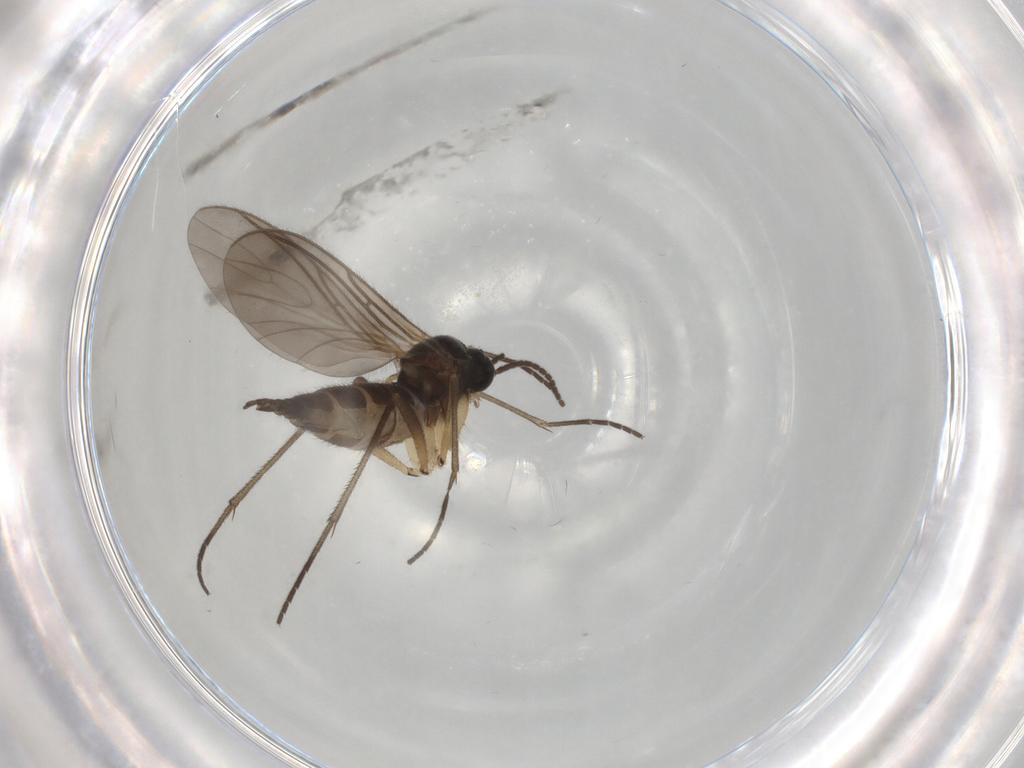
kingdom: Animalia
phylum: Arthropoda
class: Insecta
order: Diptera
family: Sciaridae
